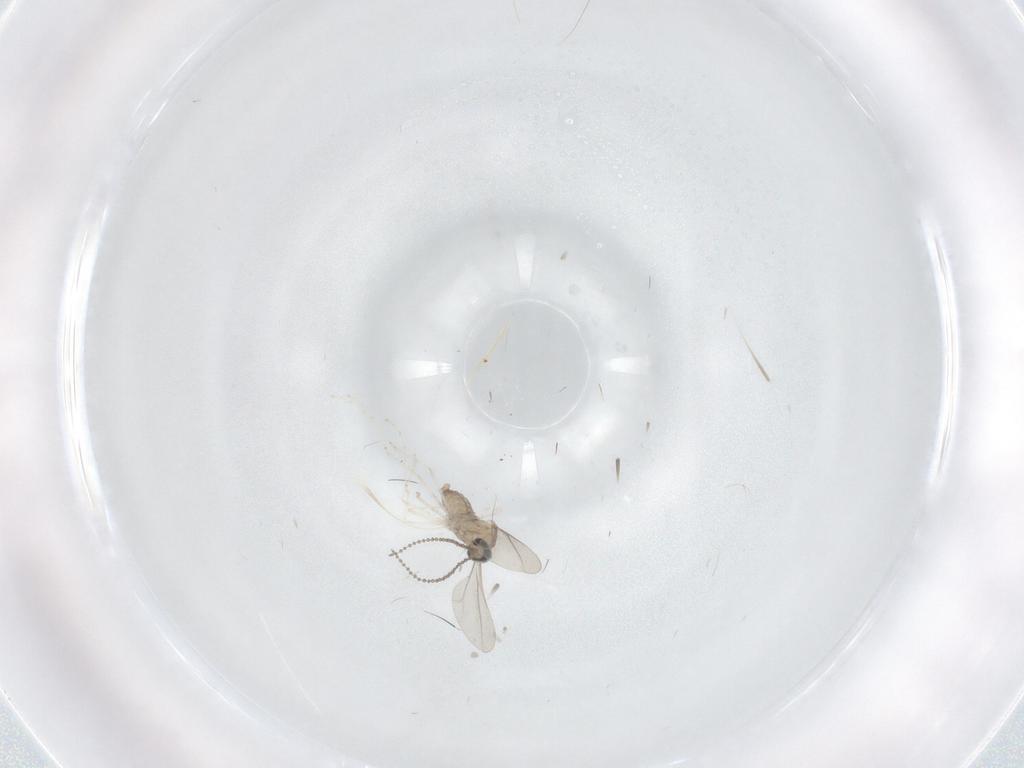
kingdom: Animalia
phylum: Arthropoda
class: Insecta
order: Diptera
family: Cecidomyiidae
